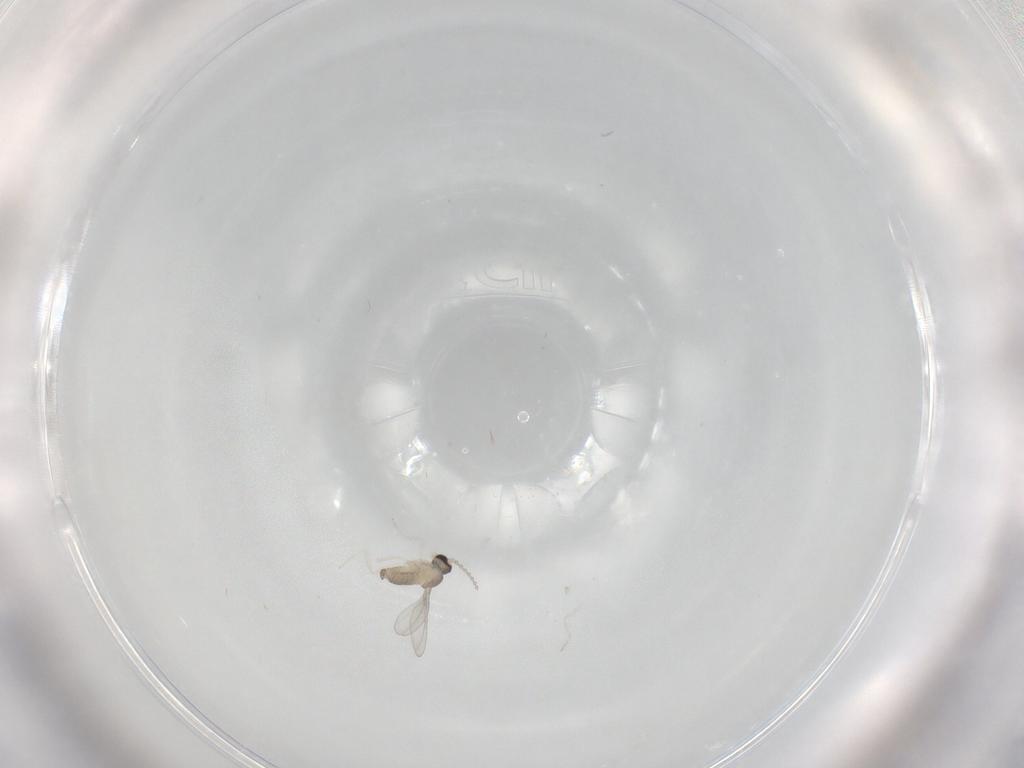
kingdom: Animalia
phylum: Arthropoda
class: Insecta
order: Diptera
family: Cecidomyiidae
